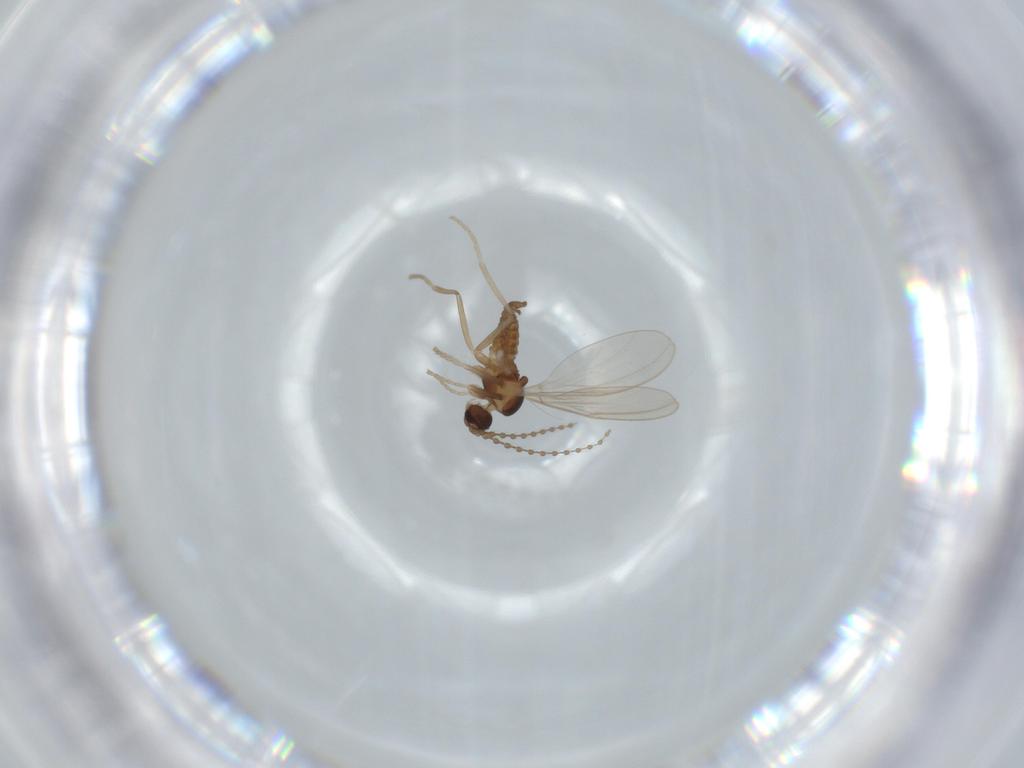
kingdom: Animalia
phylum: Arthropoda
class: Insecta
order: Diptera
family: Cecidomyiidae
